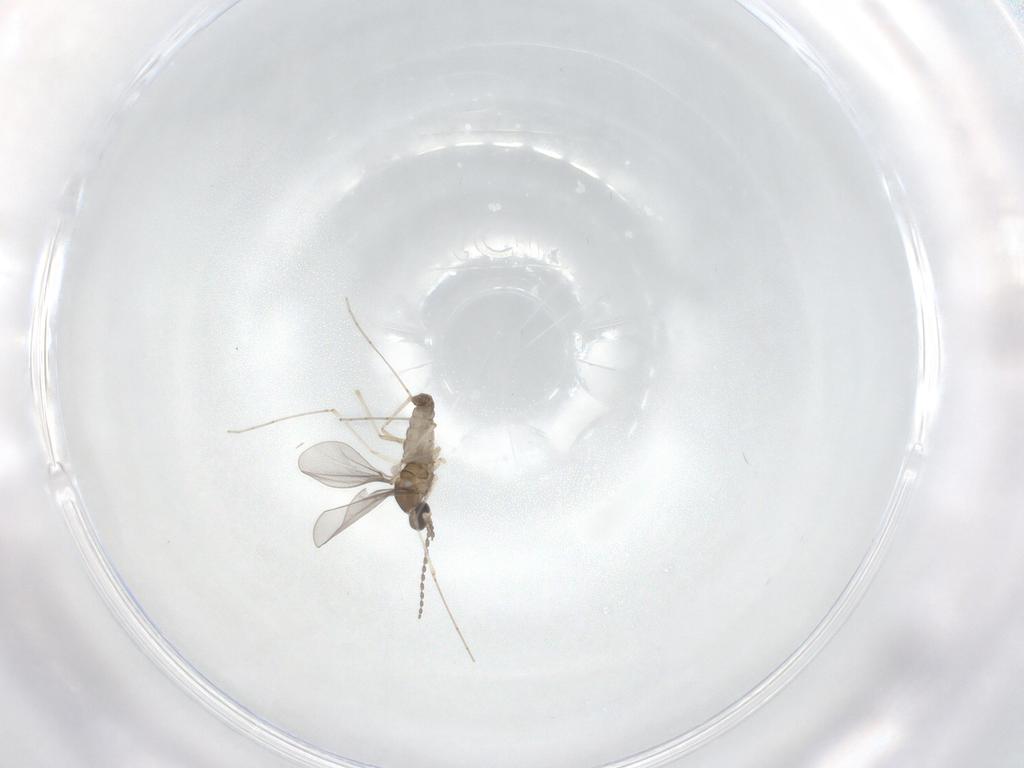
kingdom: Animalia
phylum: Arthropoda
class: Insecta
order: Diptera
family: Cecidomyiidae
